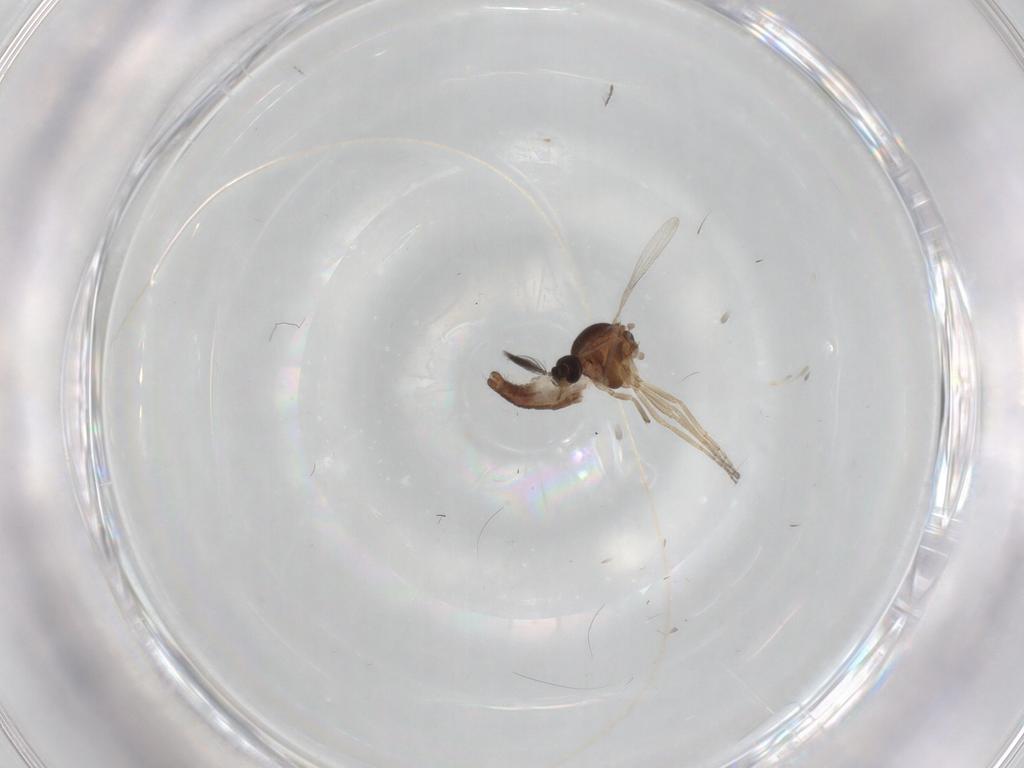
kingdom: Animalia
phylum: Arthropoda
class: Insecta
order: Diptera
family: Ceratopogonidae
